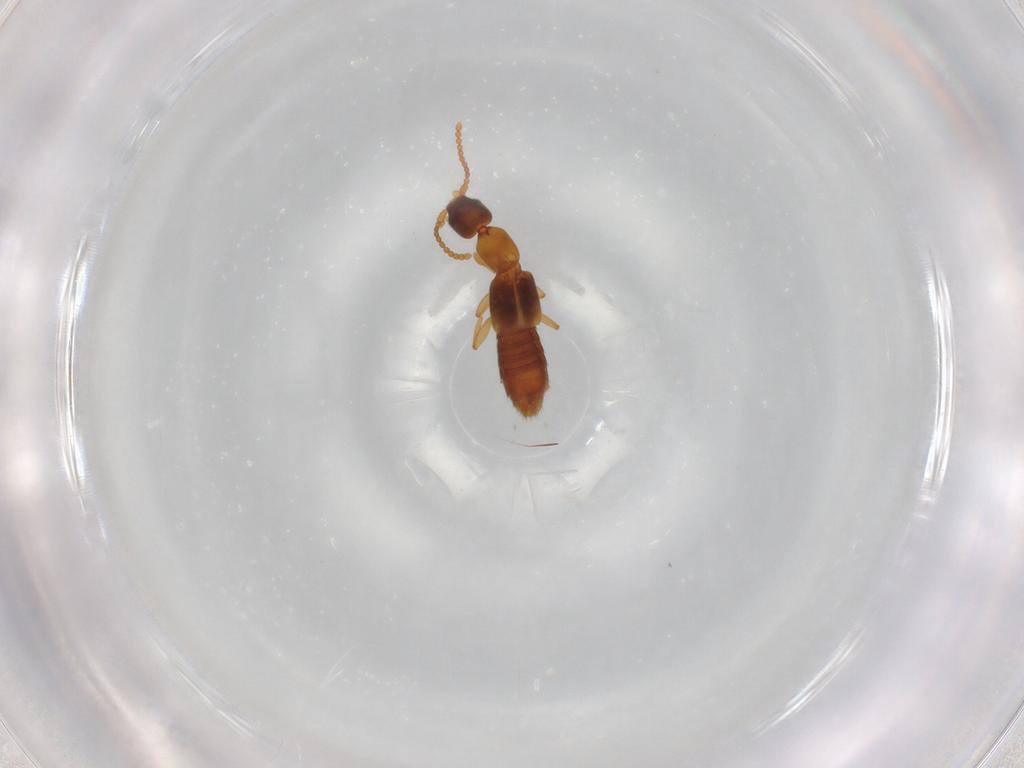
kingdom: Animalia
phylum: Arthropoda
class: Insecta
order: Coleoptera
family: Staphylinidae
